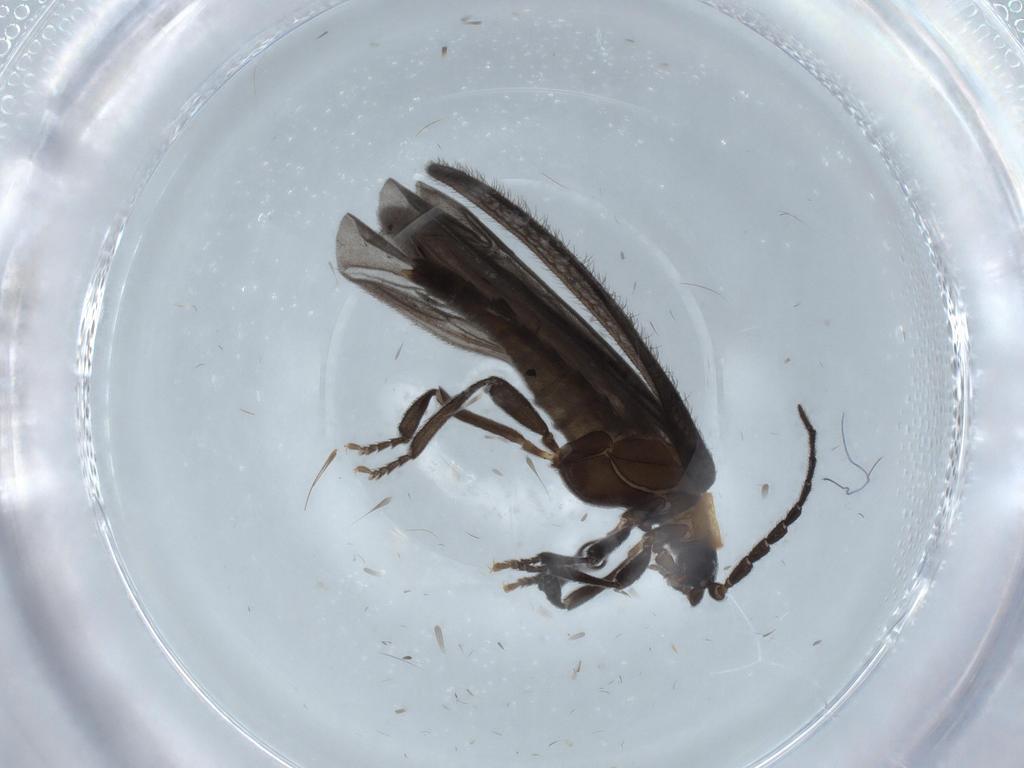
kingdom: Animalia
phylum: Arthropoda
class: Insecta
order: Coleoptera
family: Lycidae
